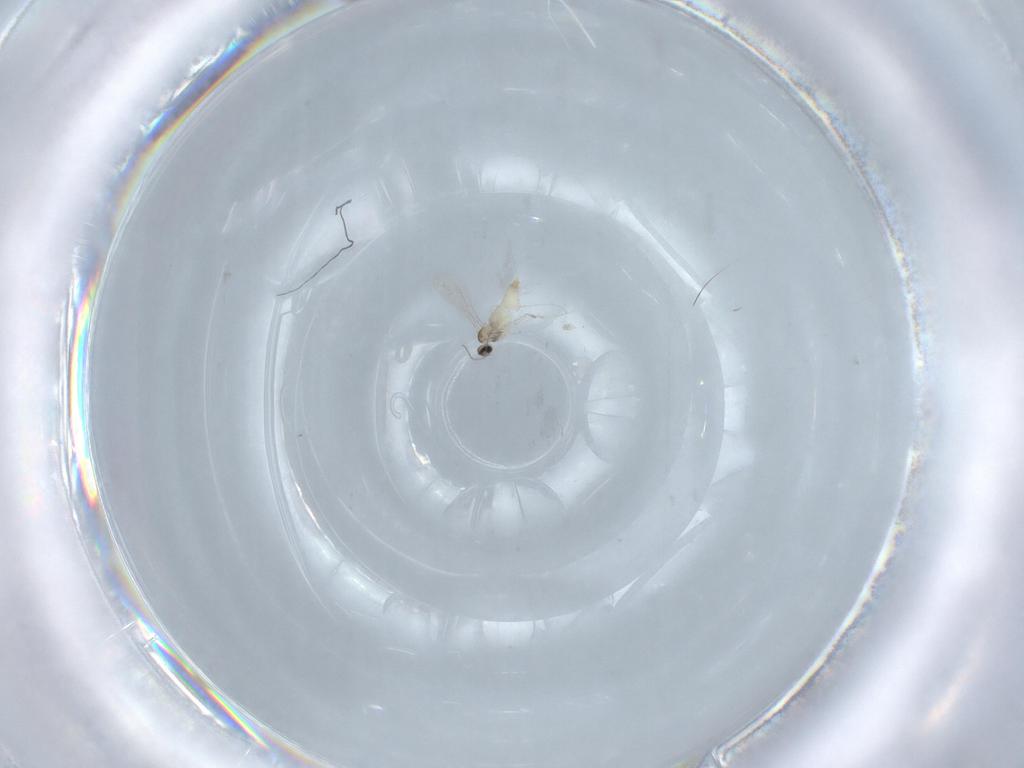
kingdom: Animalia
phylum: Arthropoda
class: Insecta
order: Diptera
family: Cecidomyiidae
